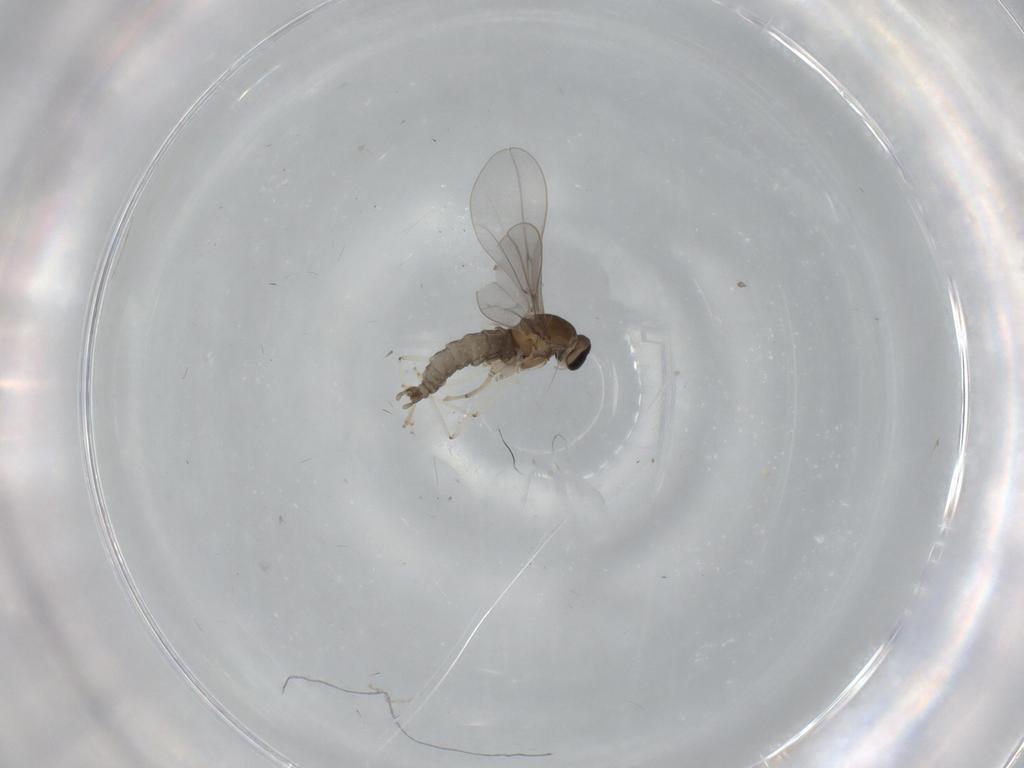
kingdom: Animalia
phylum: Arthropoda
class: Insecta
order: Diptera
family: Cecidomyiidae
